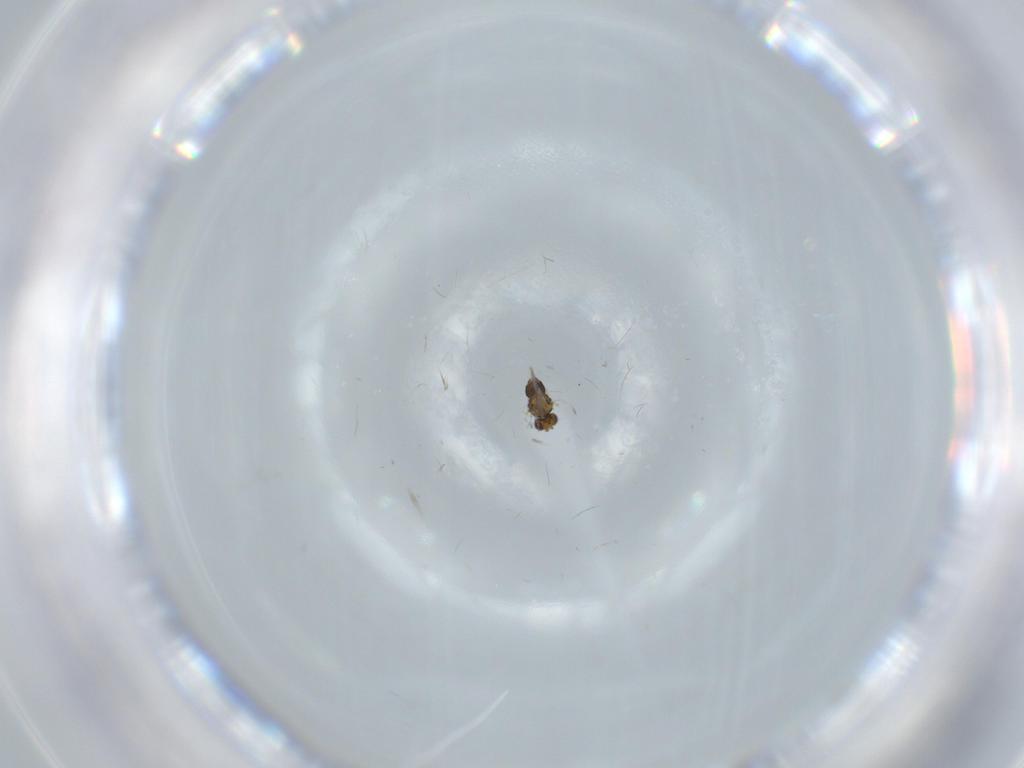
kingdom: Animalia
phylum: Arthropoda
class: Insecta
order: Hymenoptera
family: Aphelinidae
